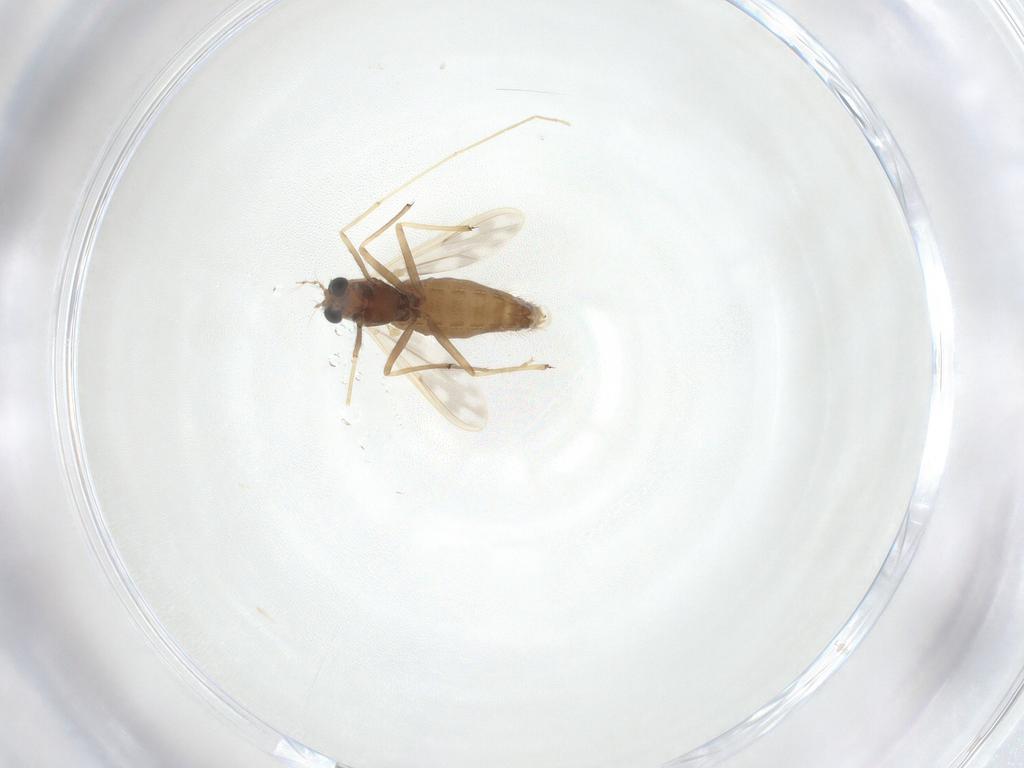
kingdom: Animalia
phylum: Arthropoda
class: Insecta
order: Diptera
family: Chironomidae
